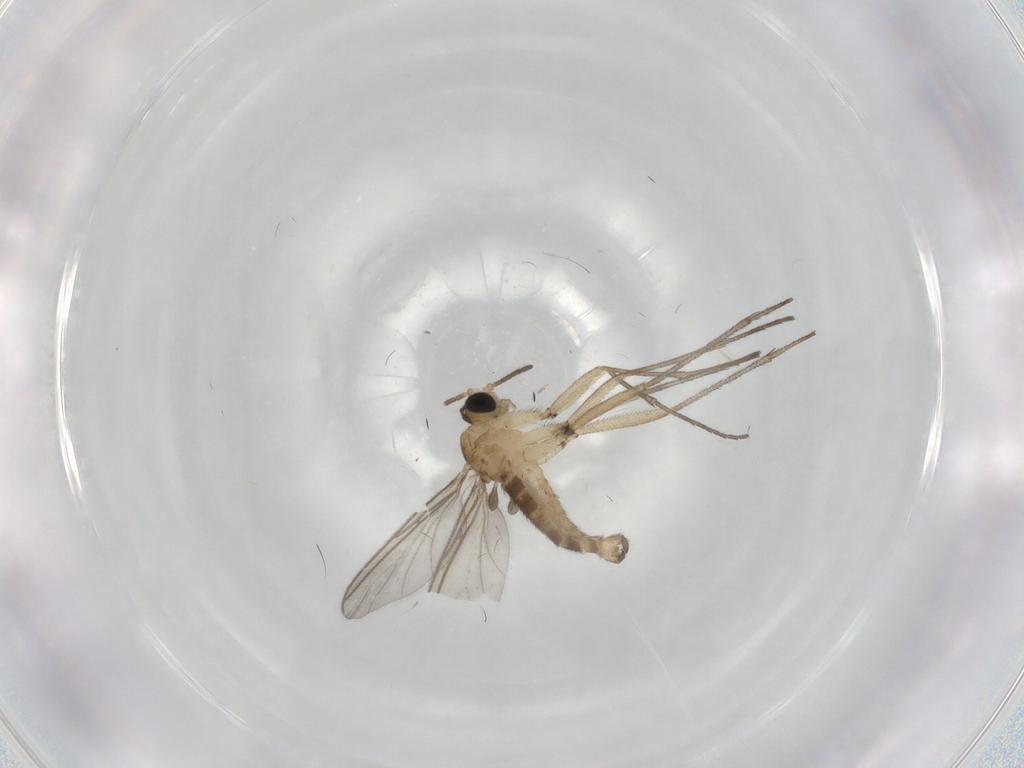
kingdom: Animalia
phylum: Arthropoda
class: Insecta
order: Diptera
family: Sciaridae
